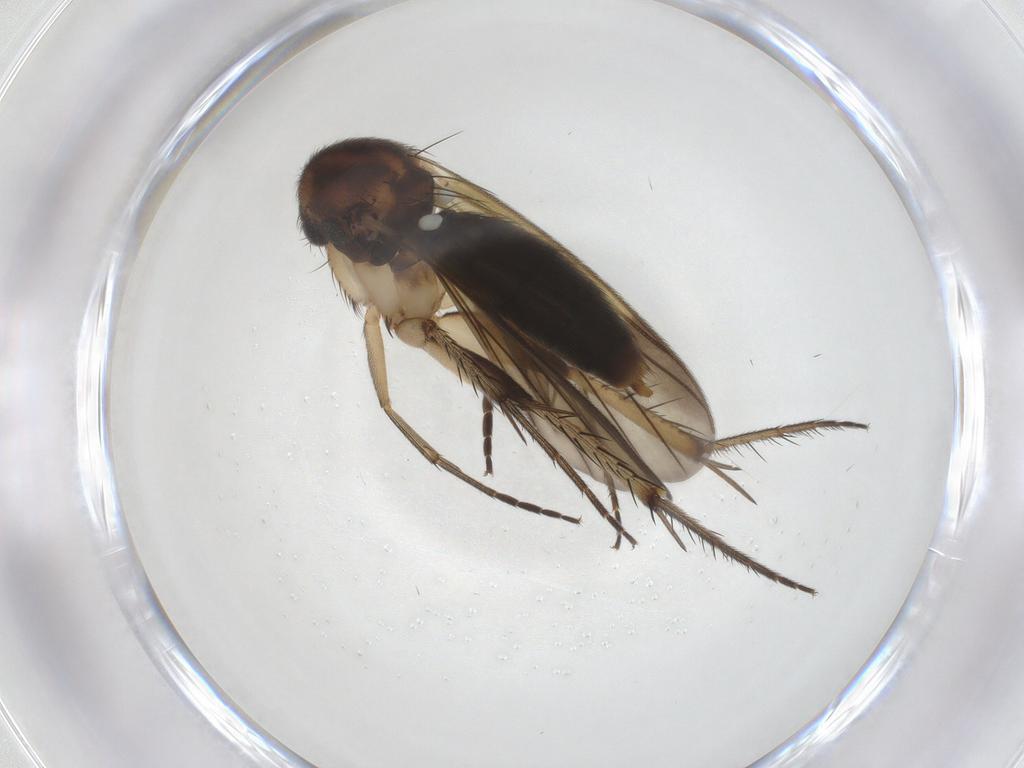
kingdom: Animalia
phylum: Arthropoda
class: Insecta
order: Diptera
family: Mycetophilidae
